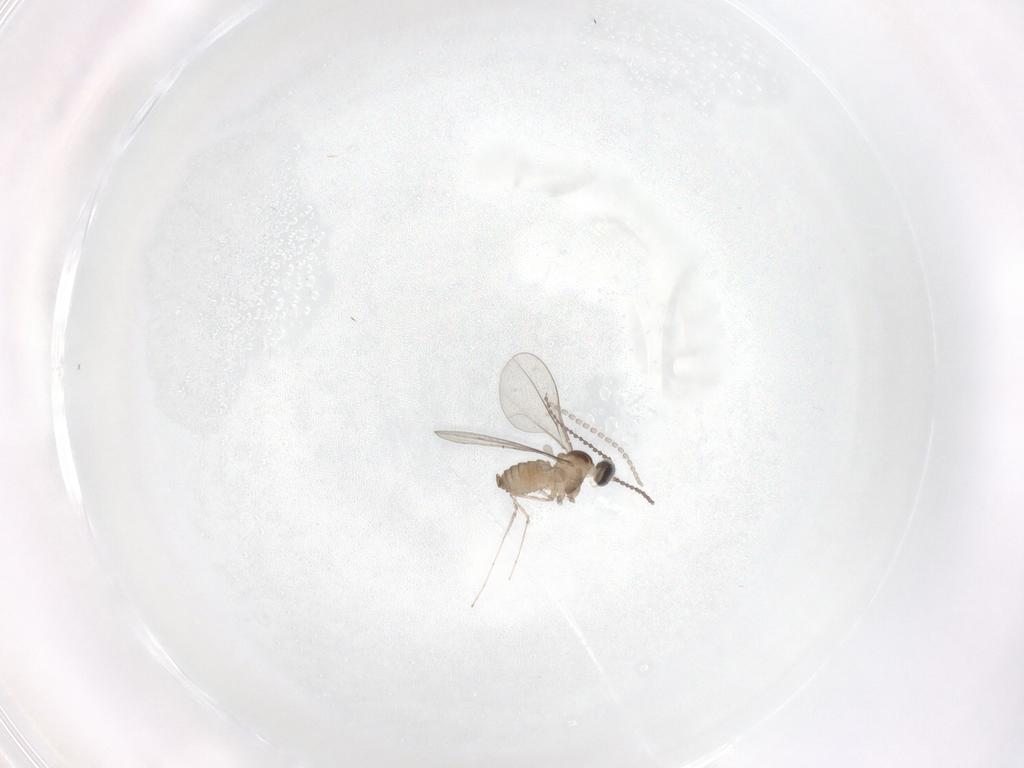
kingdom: Animalia
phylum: Arthropoda
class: Insecta
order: Diptera
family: Cecidomyiidae
